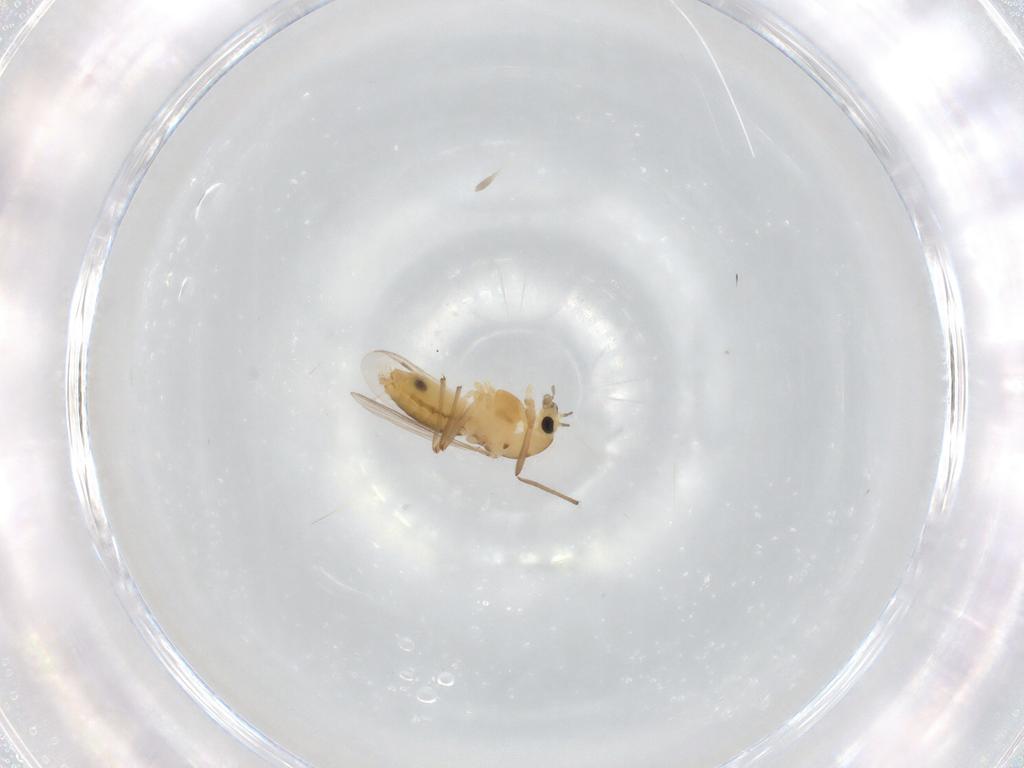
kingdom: Animalia
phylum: Arthropoda
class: Insecta
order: Diptera
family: Chironomidae
